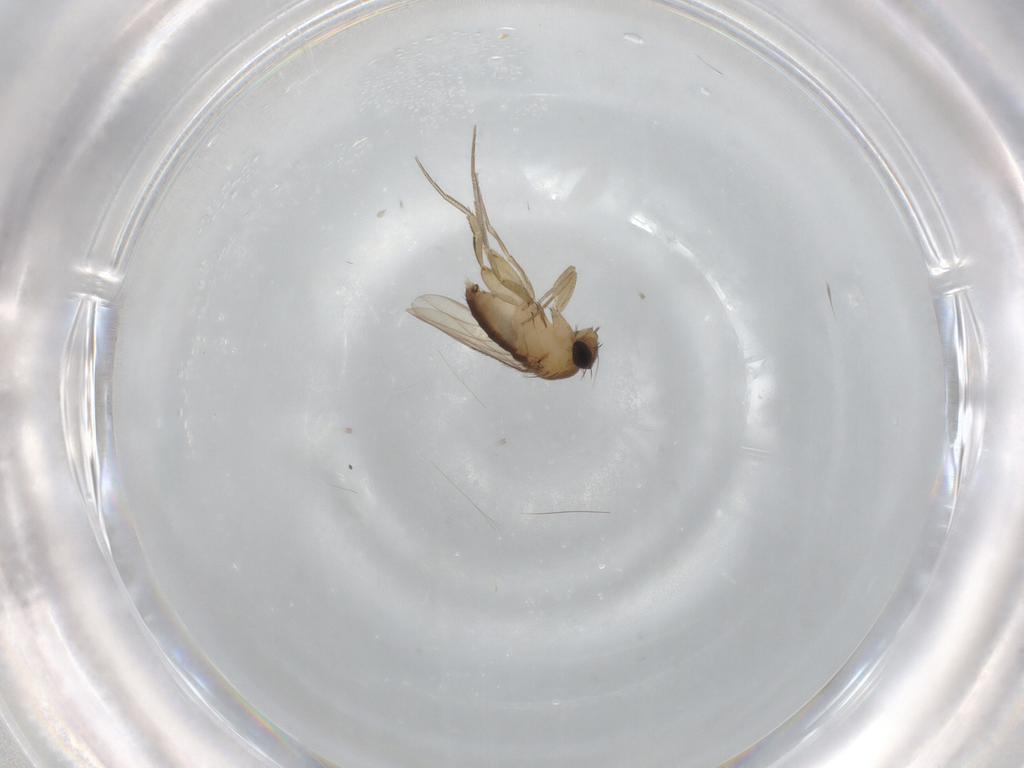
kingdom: Animalia
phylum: Arthropoda
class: Insecta
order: Diptera
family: Phoridae
